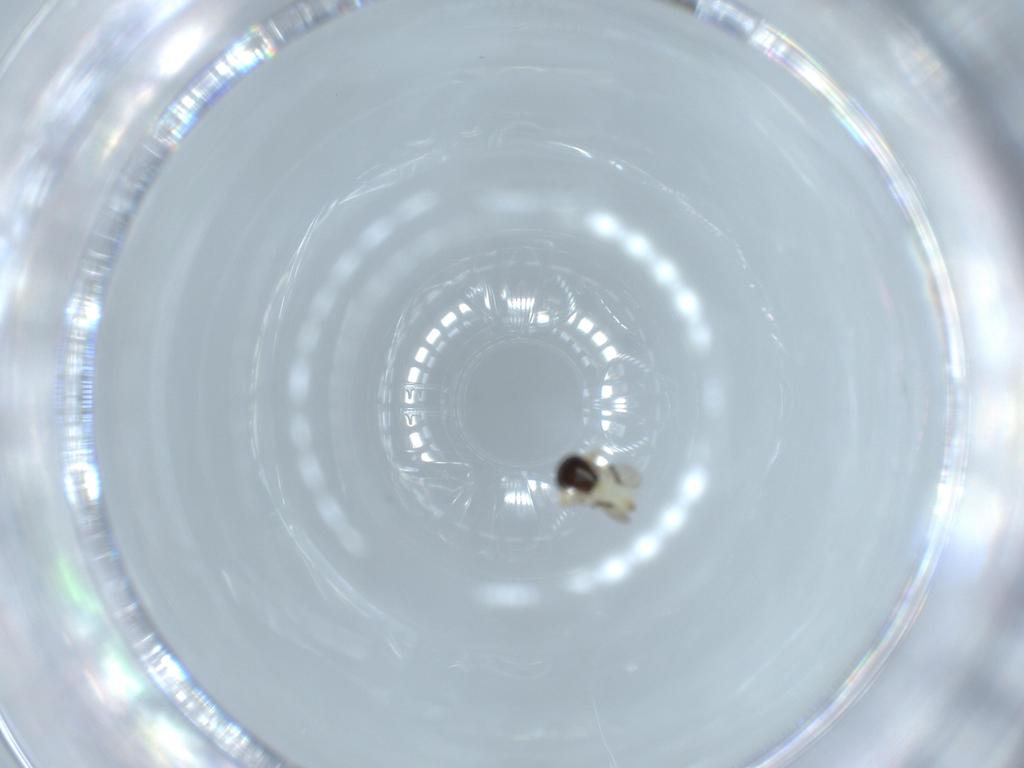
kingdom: Animalia
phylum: Arthropoda
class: Insecta
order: Hymenoptera
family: Scelionidae
